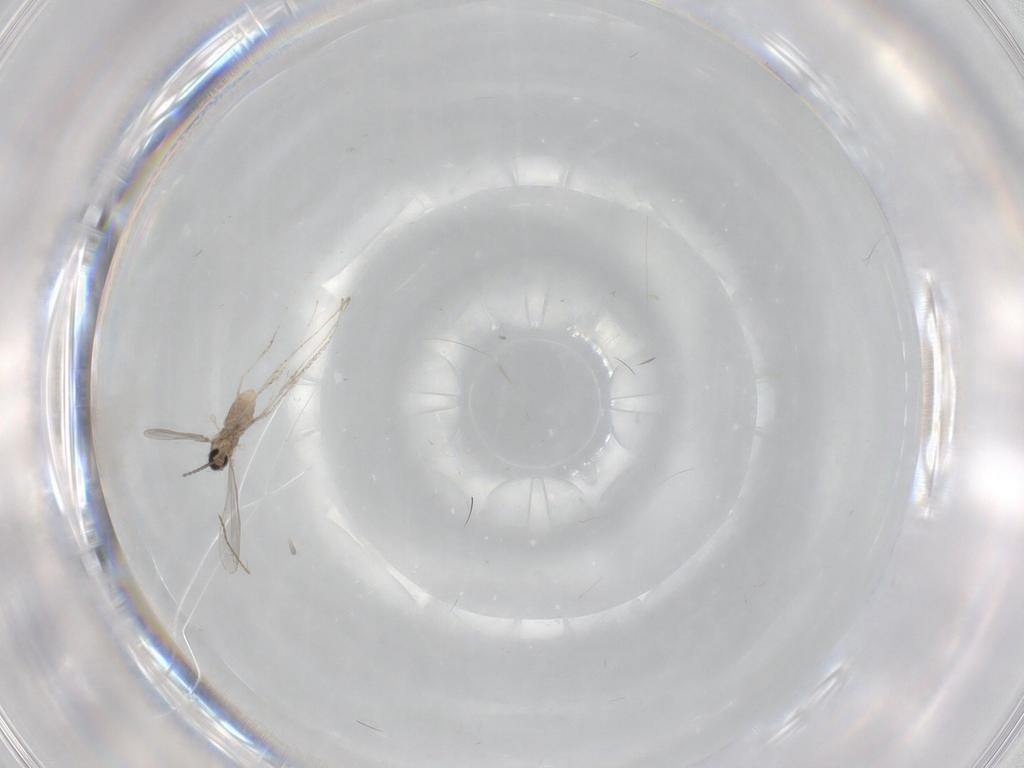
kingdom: Animalia
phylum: Arthropoda
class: Insecta
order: Diptera
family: Ceratopogonidae
